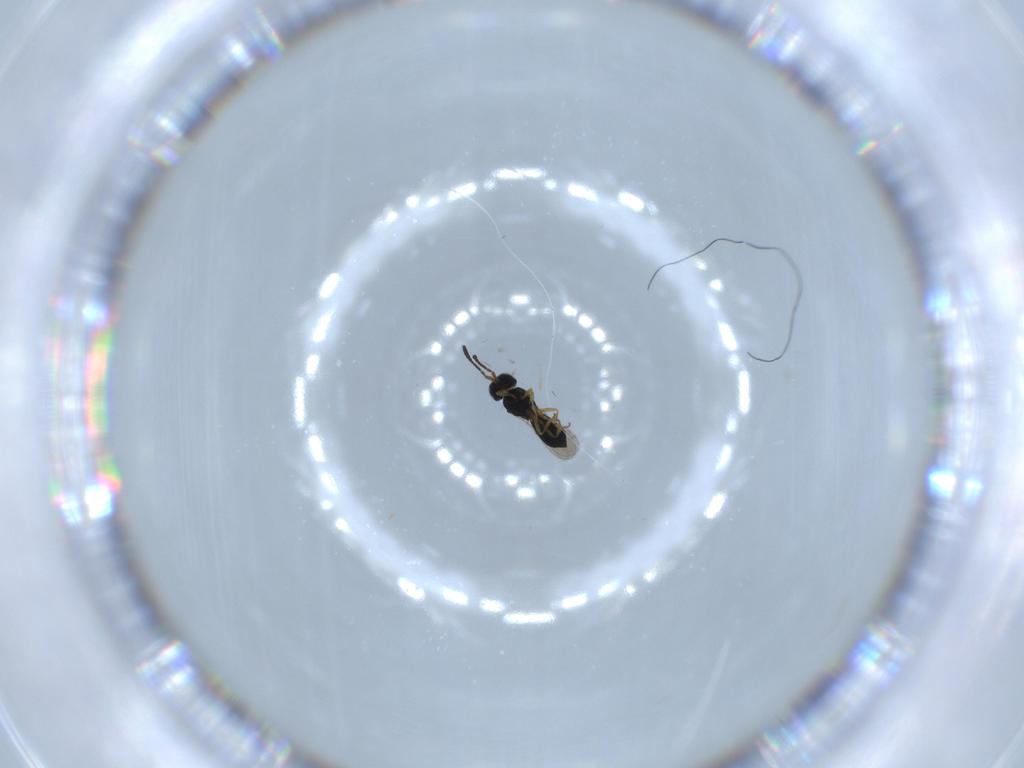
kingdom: Animalia
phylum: Arthropoda
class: Insecta
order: Hymenoptera
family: Scelionidae
